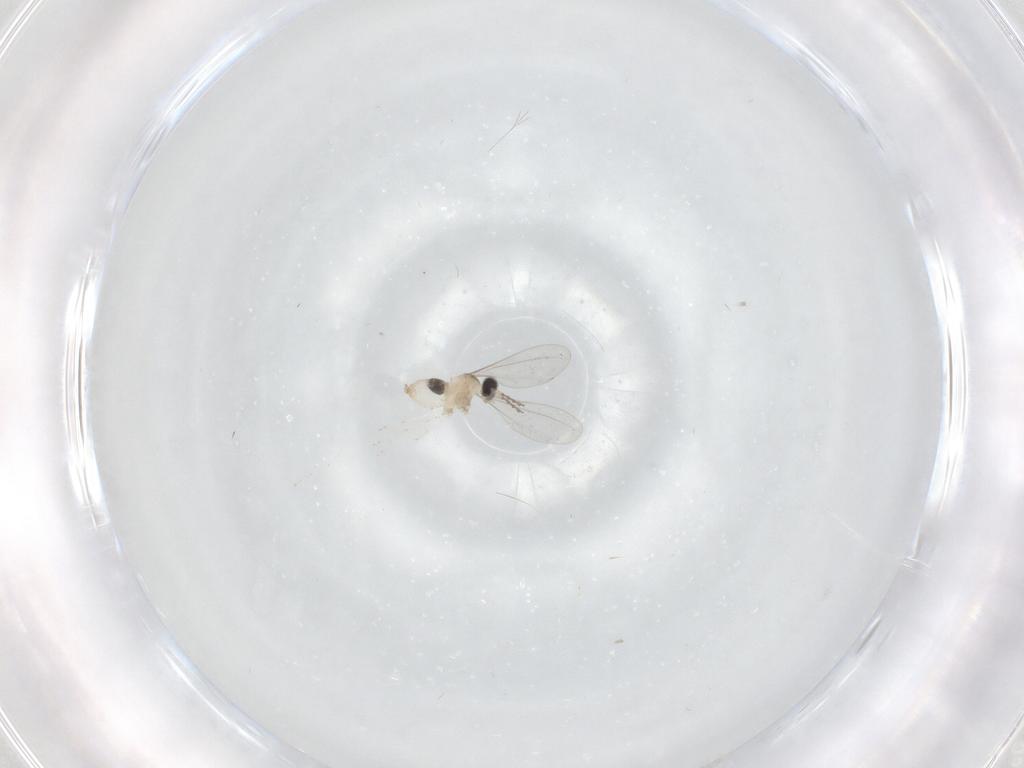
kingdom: Animalia
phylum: Arthropoda
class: Insecta
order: Diptera
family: Cecidomyiidae
